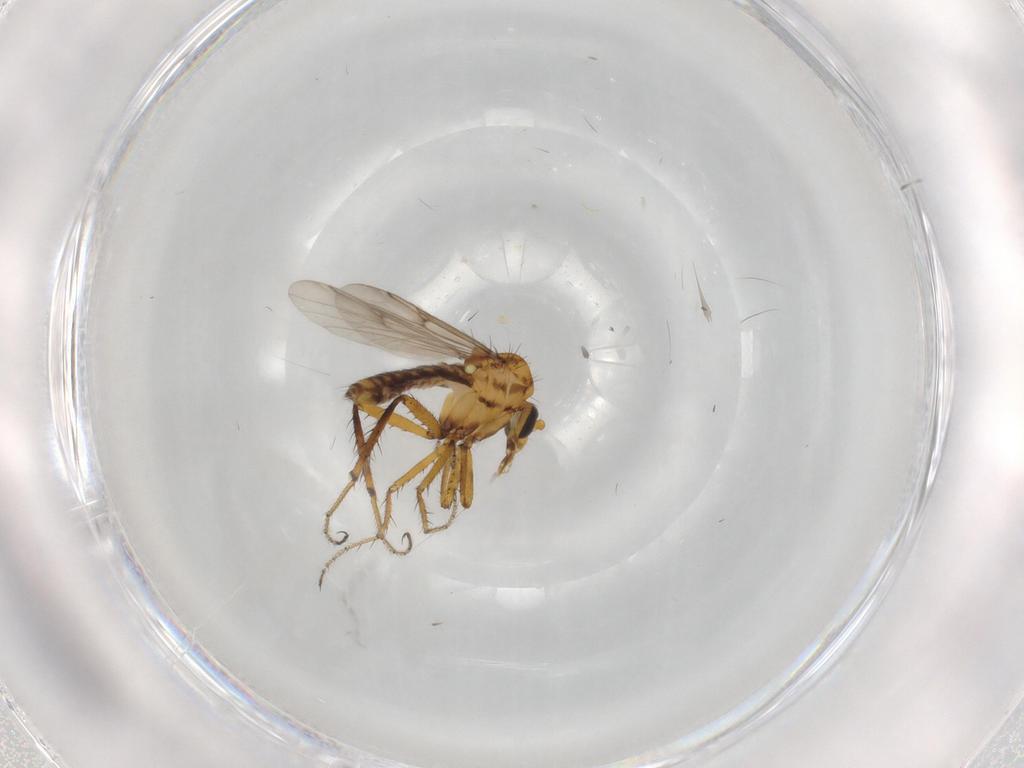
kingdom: Animalia
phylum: Arthropoda
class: Insecta
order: Diptera
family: Ceratopogonidae
